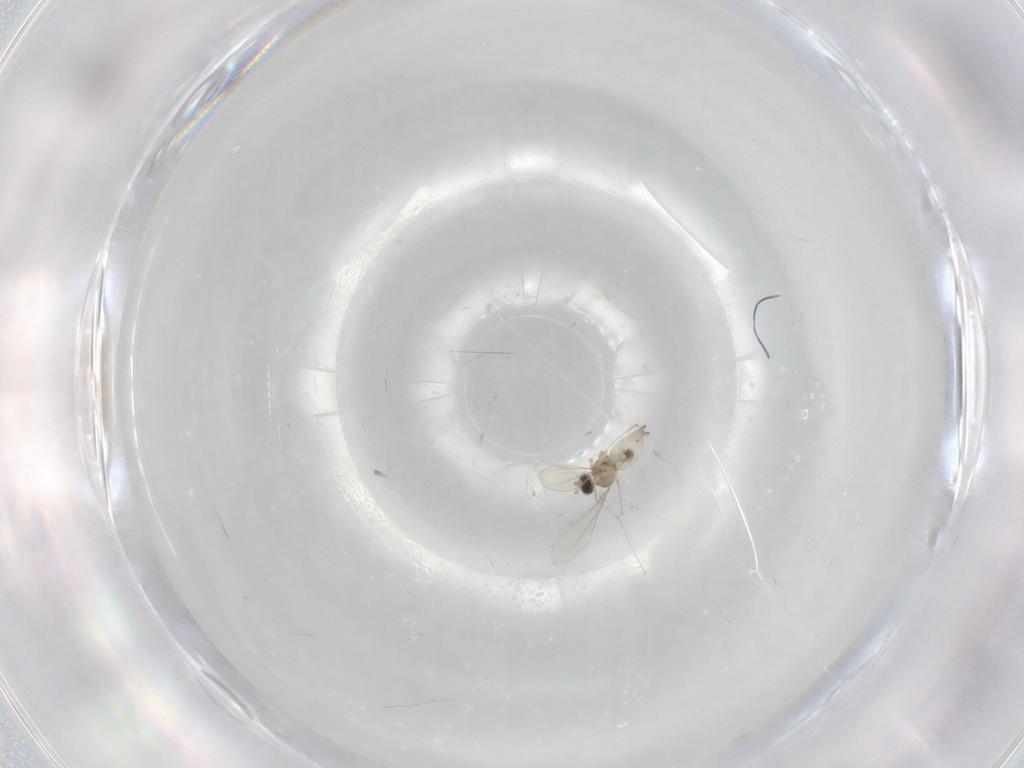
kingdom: Animalia
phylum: Arthropoda
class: Insecta
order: Diptera
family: Cecidomyiidae
